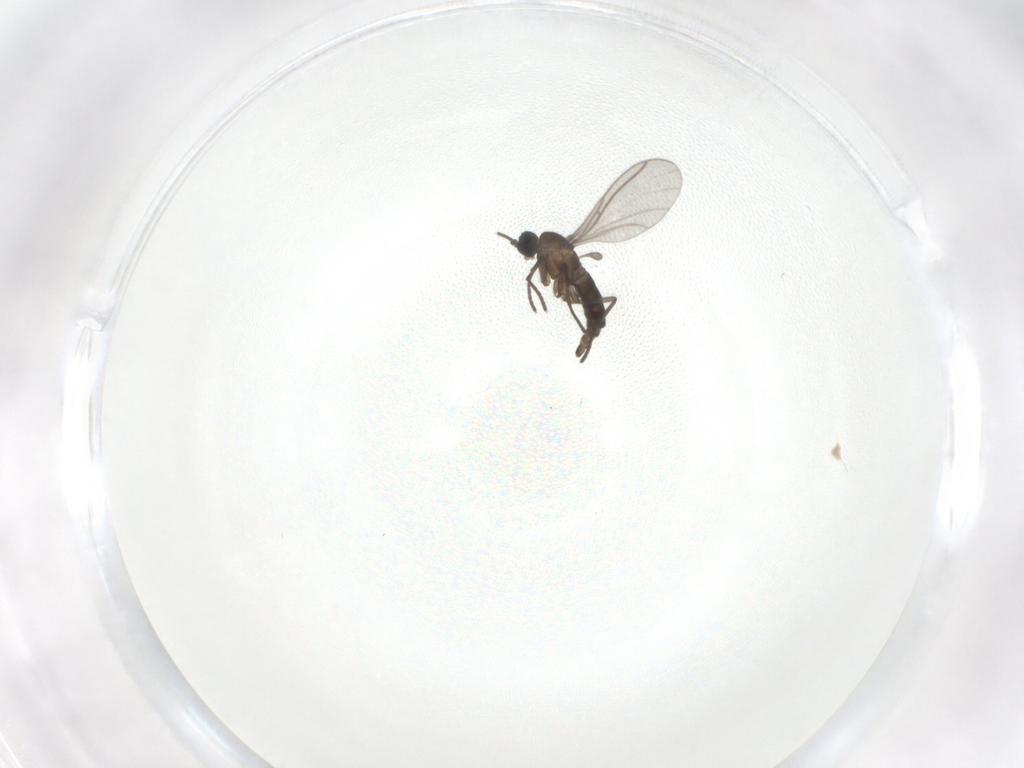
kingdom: Animalia
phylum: Arthropoda
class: Insecta
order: Diptera
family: Sciaridae
